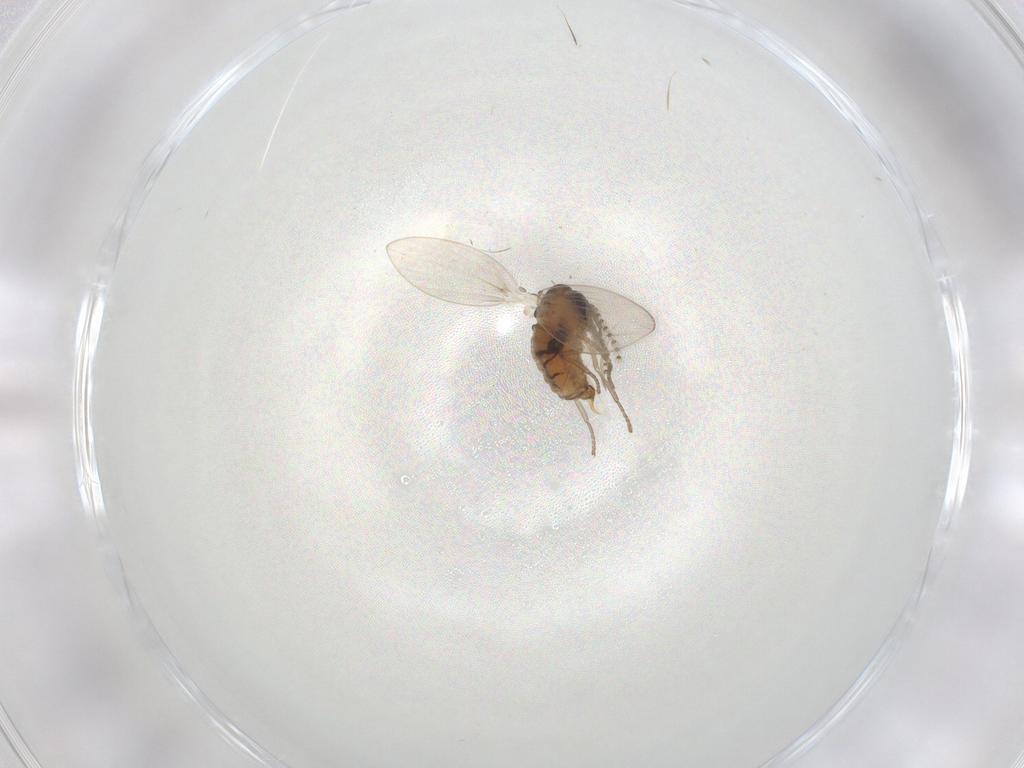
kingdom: Animalia
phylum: Arthropoda
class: Insecta
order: Diptera
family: Psychodidae
